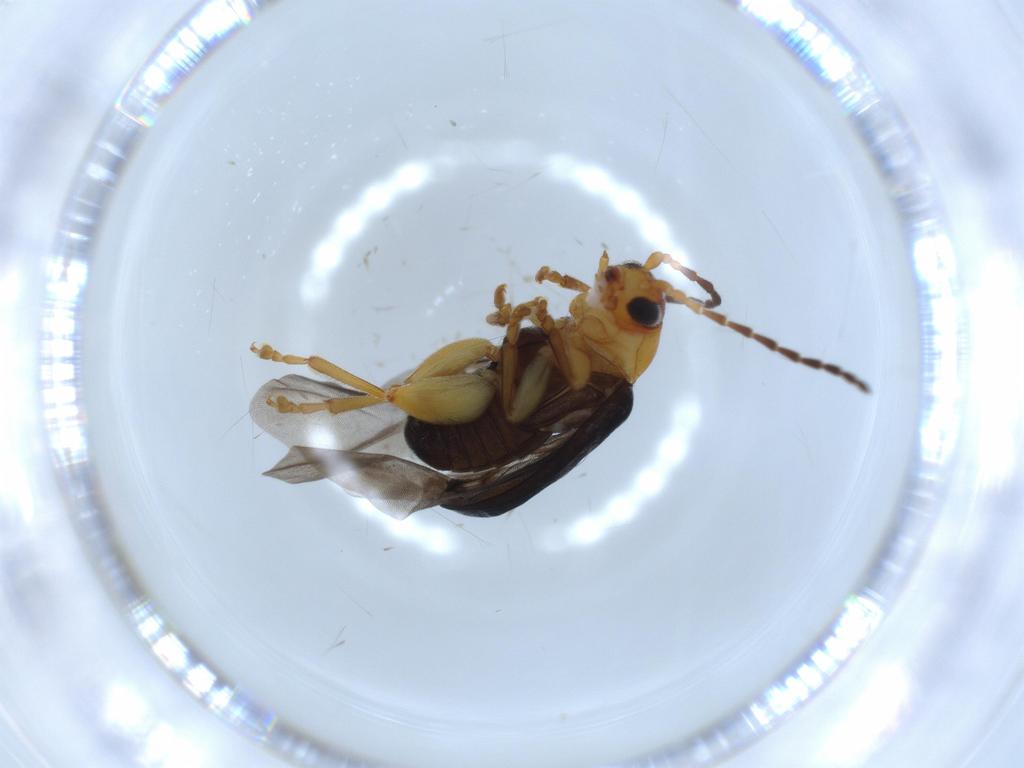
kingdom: Animalia
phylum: Arthropoda
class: Insecta
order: Coleoptera
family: Chrysomelidae
